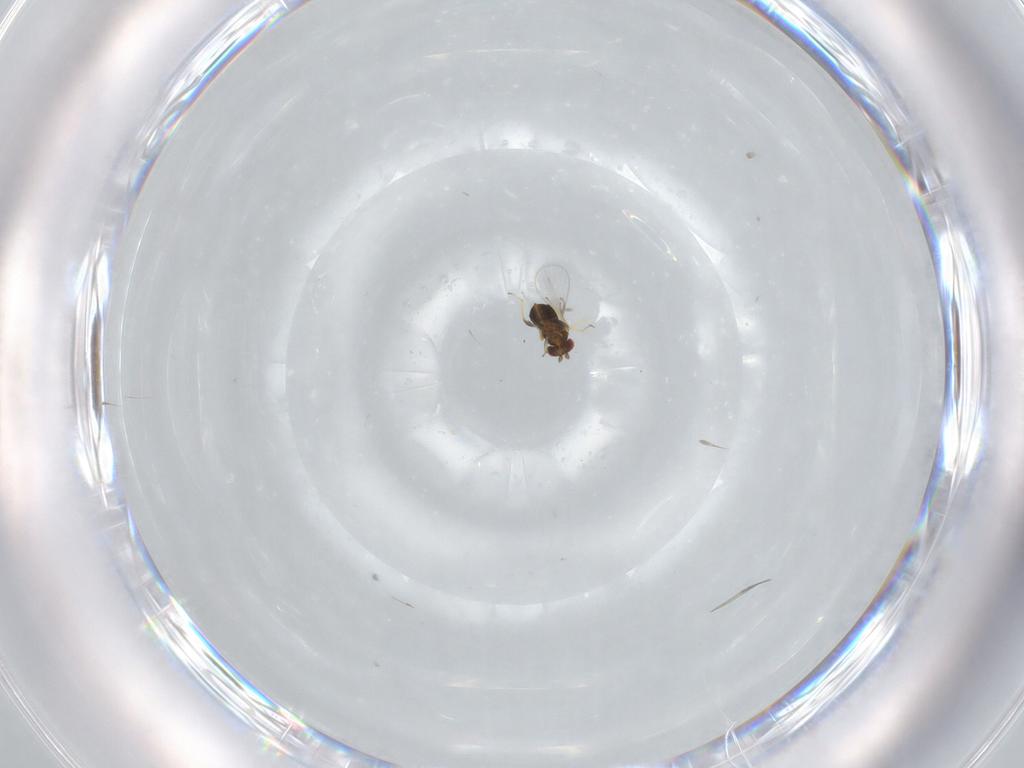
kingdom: Animalia
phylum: Arthropoda
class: Insecta
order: Hymenoptera
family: Trichogrammatidae
